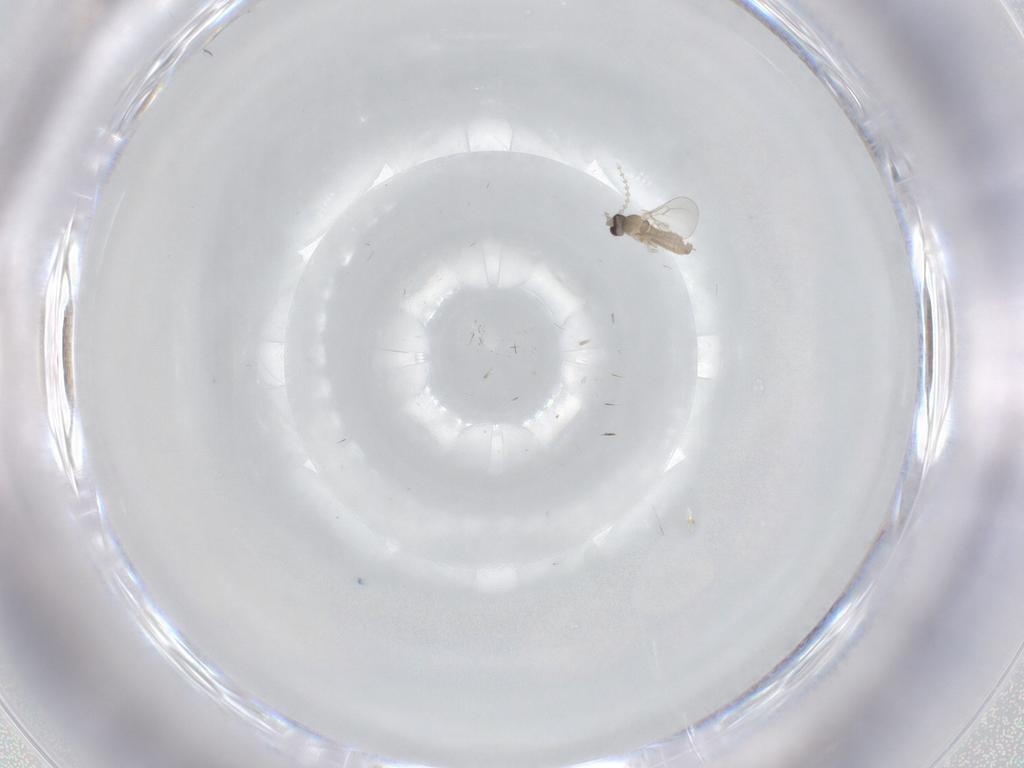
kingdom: Animalia
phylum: Arthropoda
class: Insecta
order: Diptera
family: Cecidomyiidae
